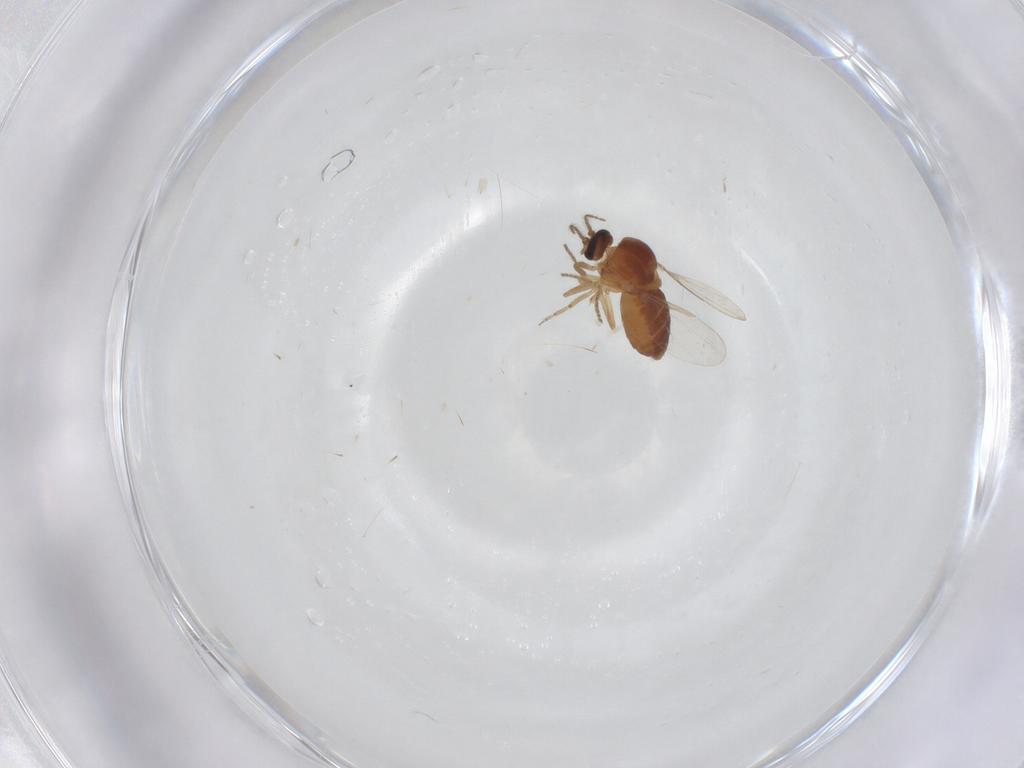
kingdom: Animalia
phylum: Arthropoda
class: Insecta
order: Diptera
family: Ceratopogonidae
